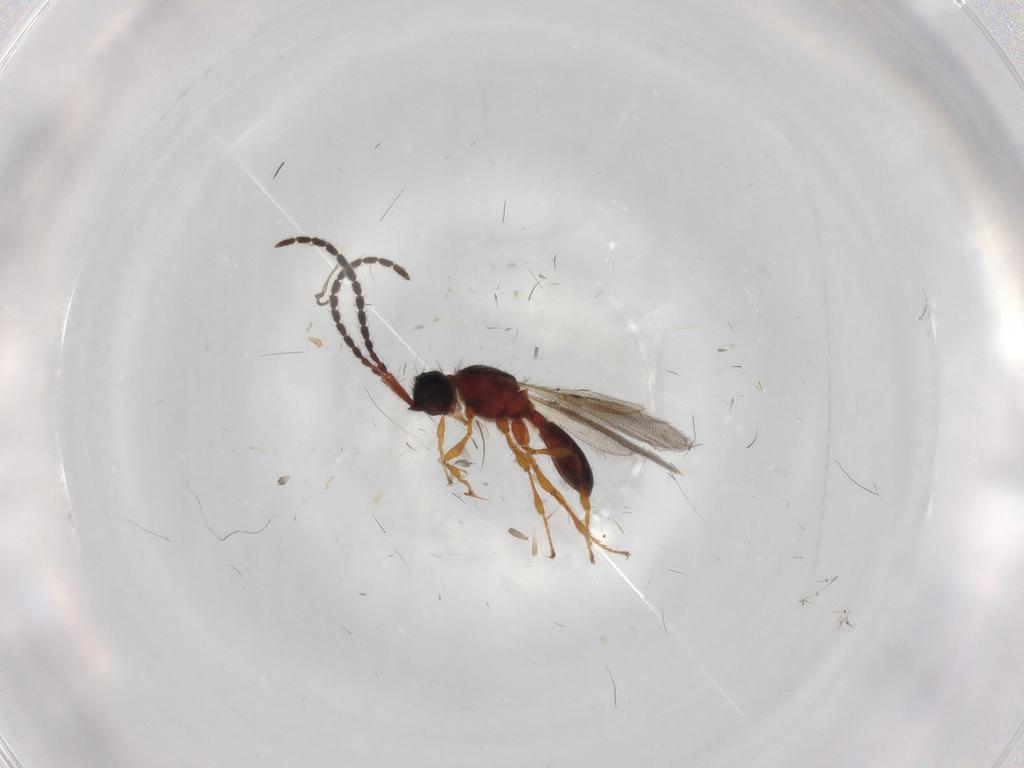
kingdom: Animalia
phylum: Arthropoda
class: Insecta
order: Hymenoptera
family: Diapriidae
